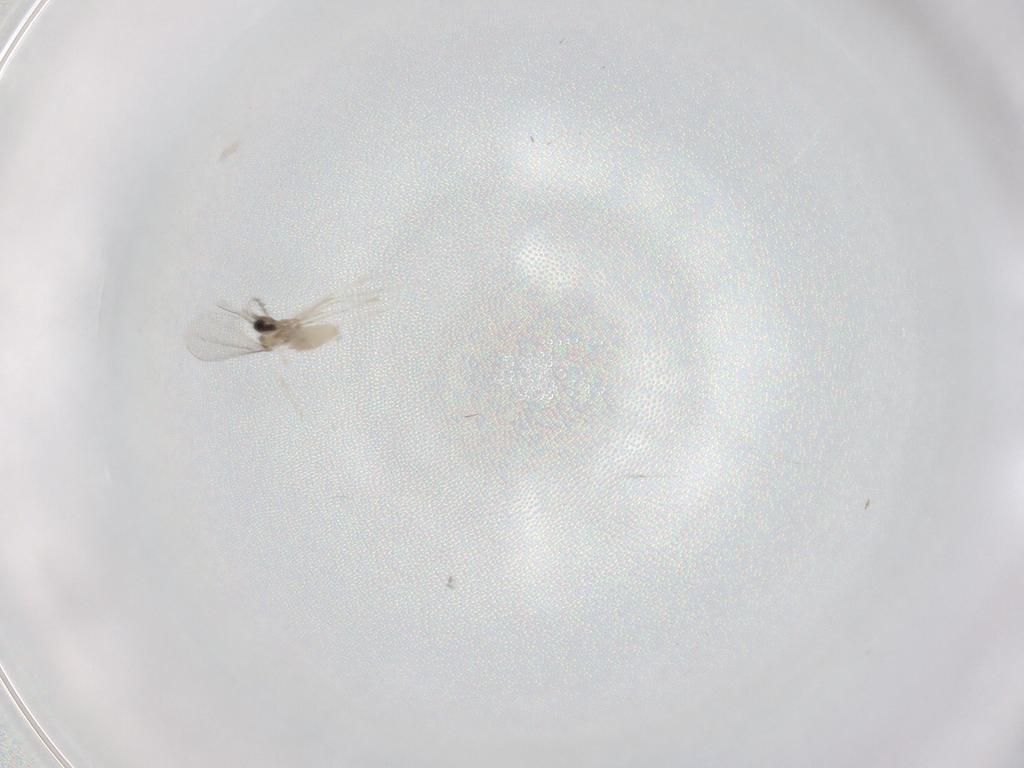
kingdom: Animalia
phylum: Arthropoda
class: Insecta
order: Diptera
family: Cecidomyiidae
